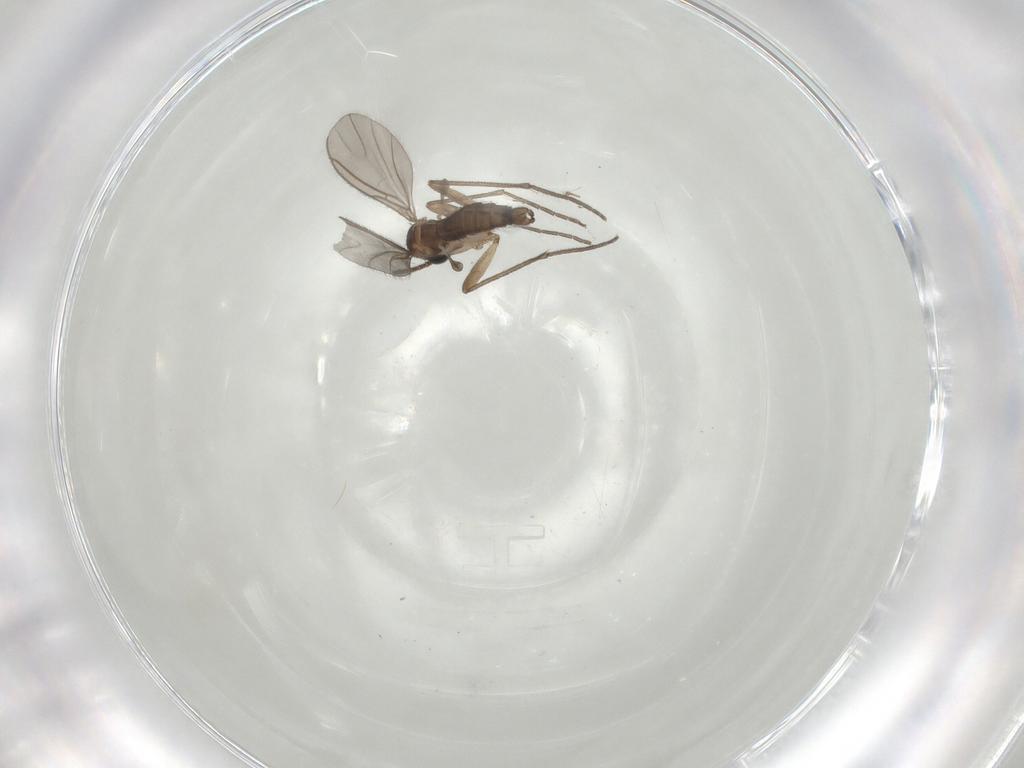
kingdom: Animalia
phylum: Arthropoda
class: Insecta
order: Diptera
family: Sciaridae
